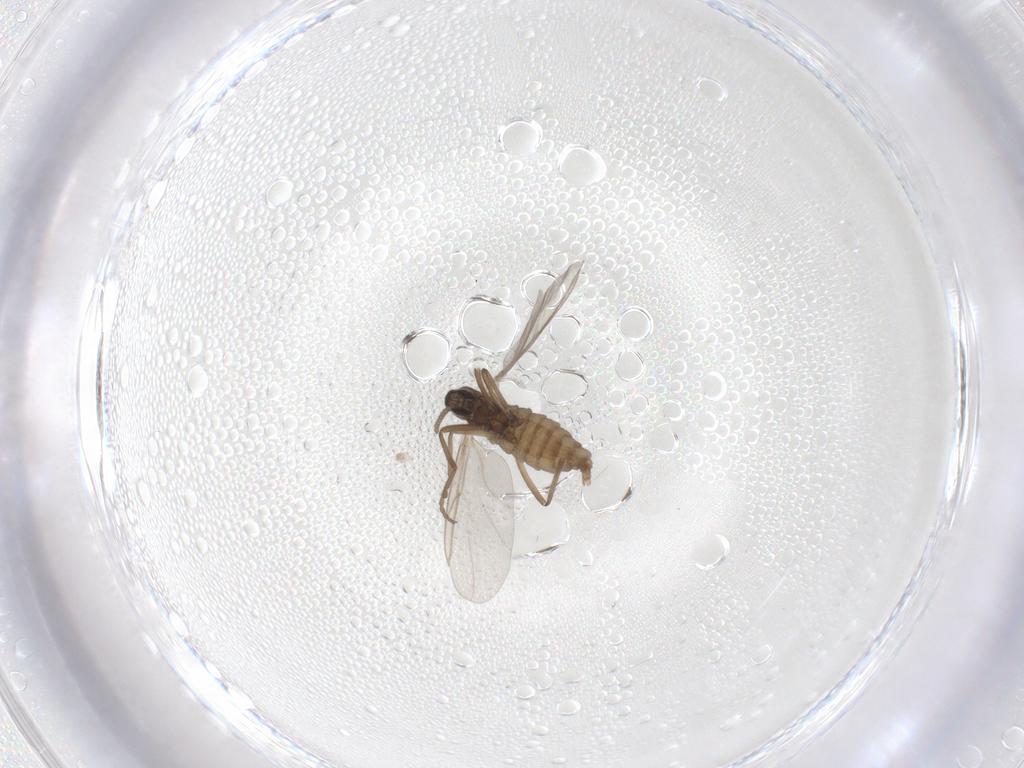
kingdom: Animalia
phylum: Arthropoda
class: Insecta
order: Diptera
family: Cecidomyiidae
